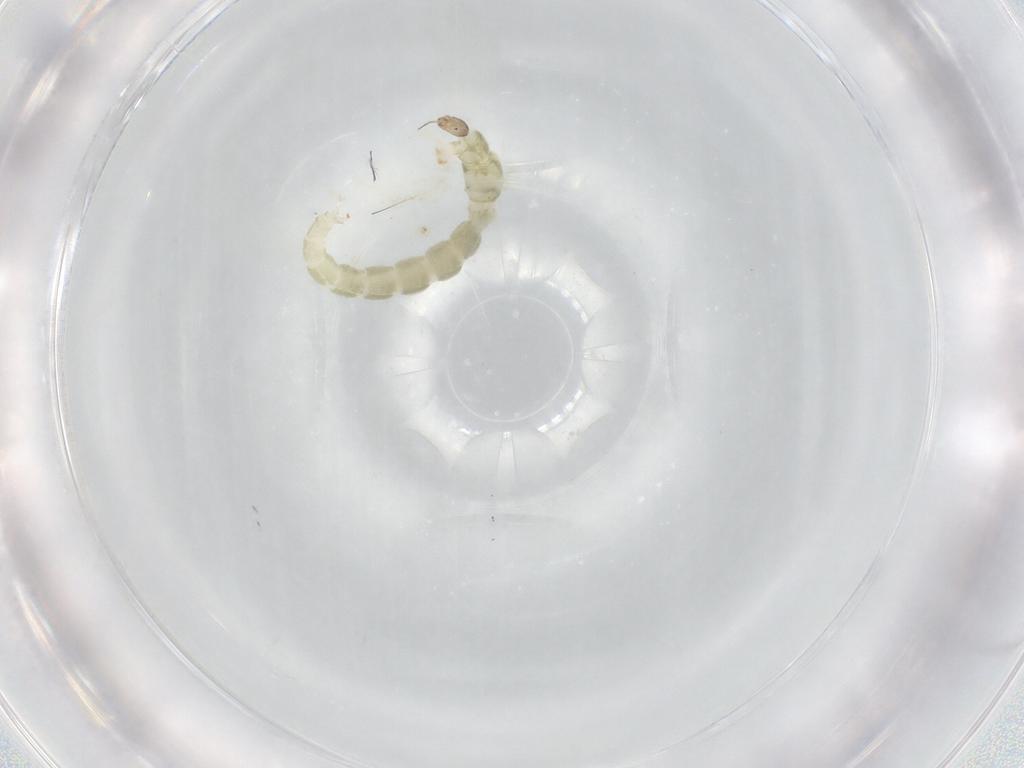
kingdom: Animalia
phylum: Arthropoda
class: Insecta
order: Diptera
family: Chironomidae
